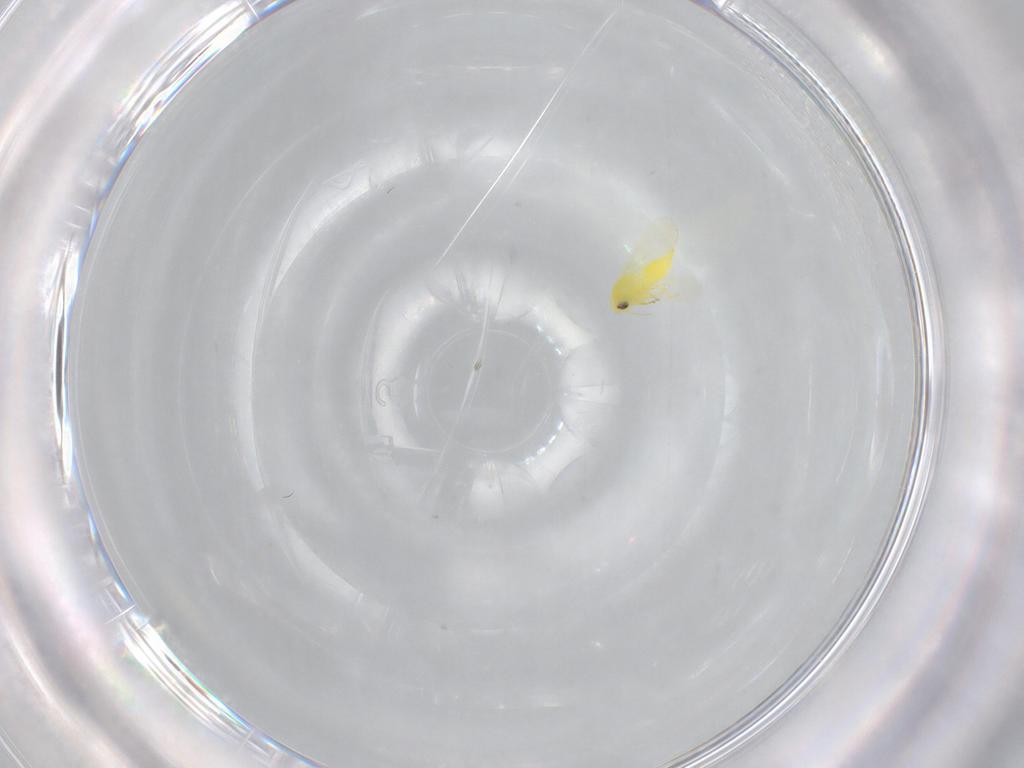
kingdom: Animalia
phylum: Arthropoda
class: Insecta
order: Hemiptera
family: Aleyrodidae
